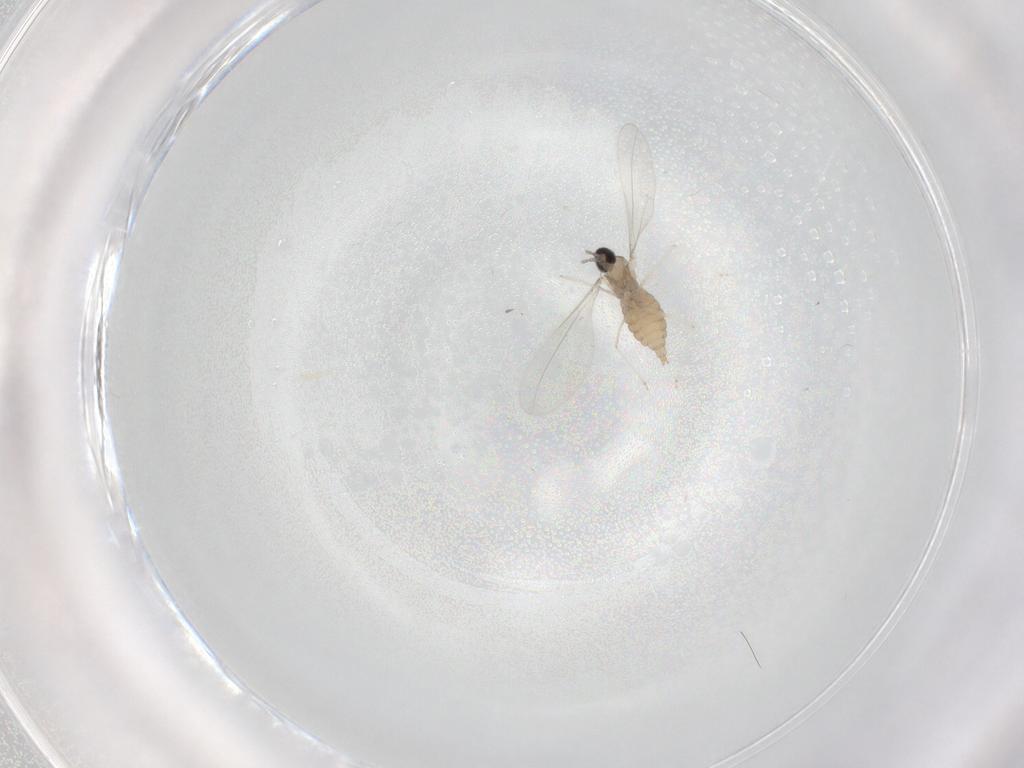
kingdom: Animalia
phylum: Arthropoda
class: Insecta
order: Diptera
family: Cecidomyiidae
